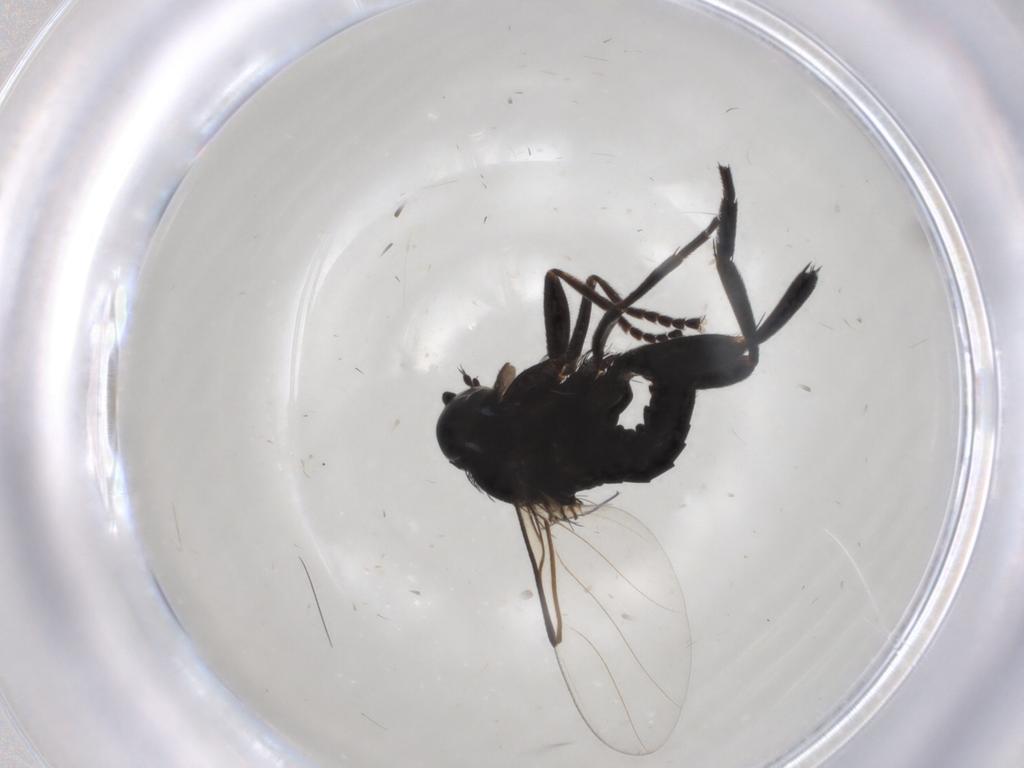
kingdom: Animalia
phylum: Arthropoda
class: Insecta
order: Diptera
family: Phoridae
